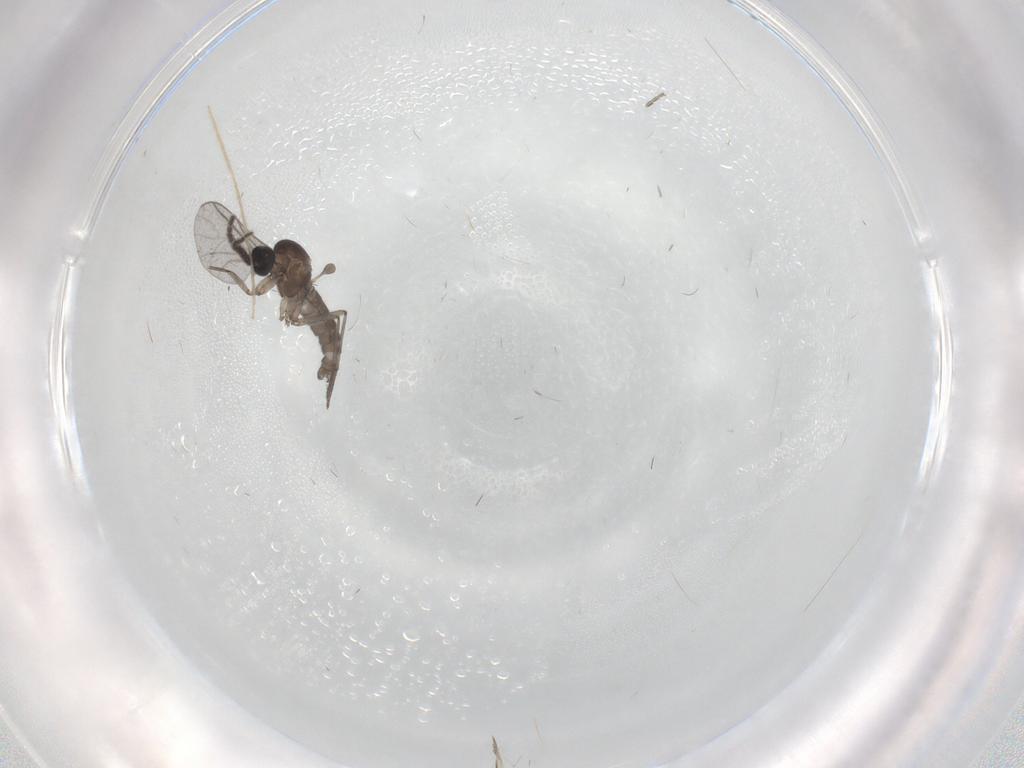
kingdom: Animalia
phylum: Arthropoda
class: Insecta
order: Diptera
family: Chironomidae
